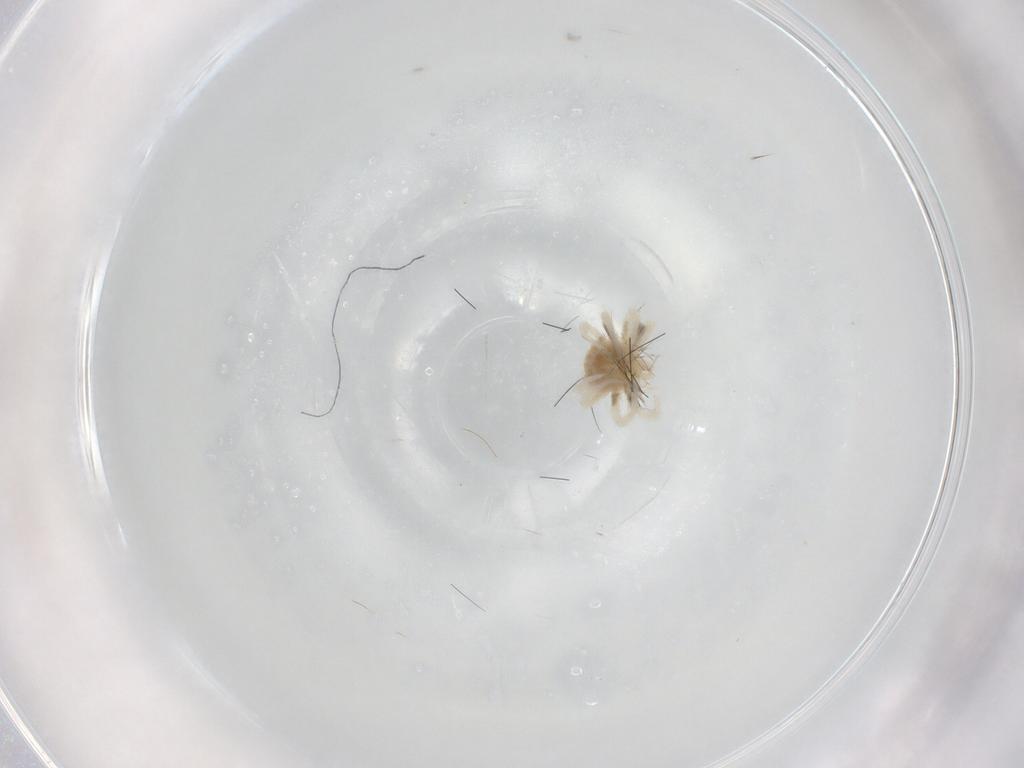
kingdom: Animalia
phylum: Arthropoda
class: Arachnida
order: Trombidiformes
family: Anystidae
